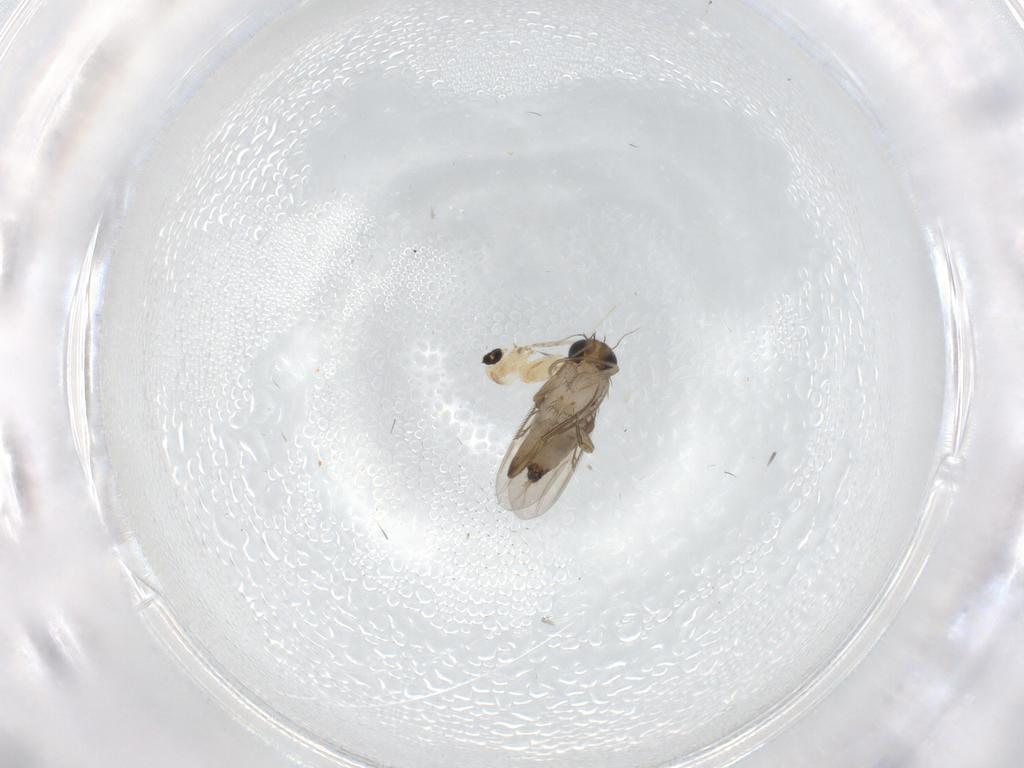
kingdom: Animalia
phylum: Arthropoda
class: Insecta
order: Diptera
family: Phoridae
